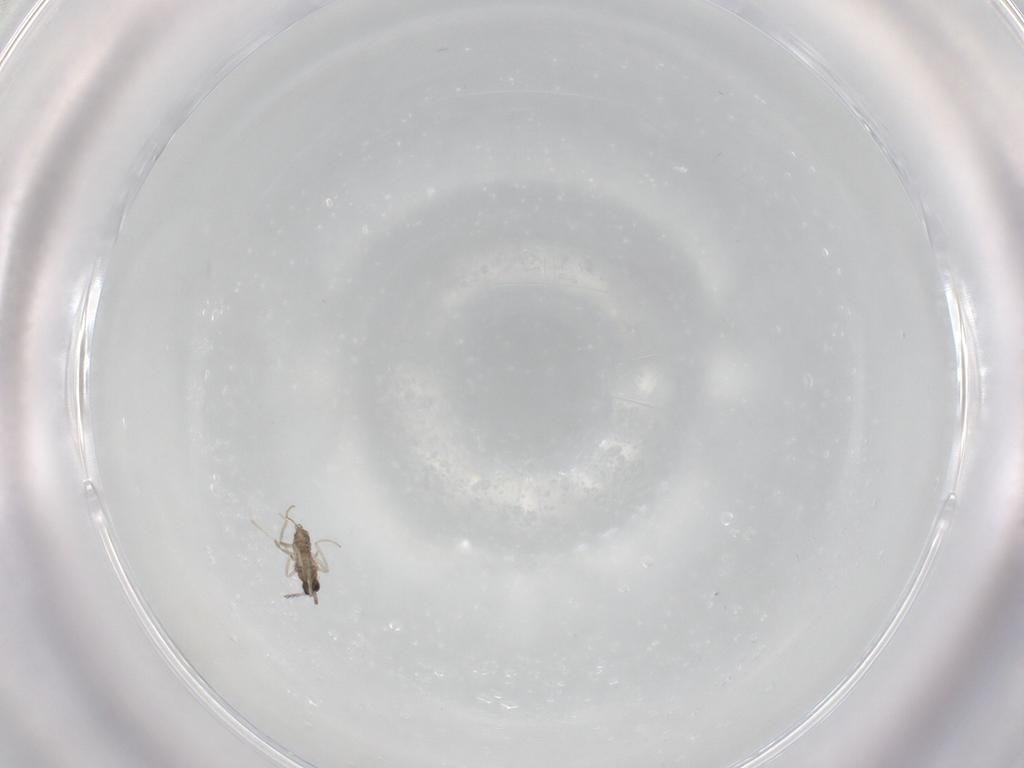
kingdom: Animalia
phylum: Arthropoda
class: Insecta
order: Diptera
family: Cecidomyiidae
